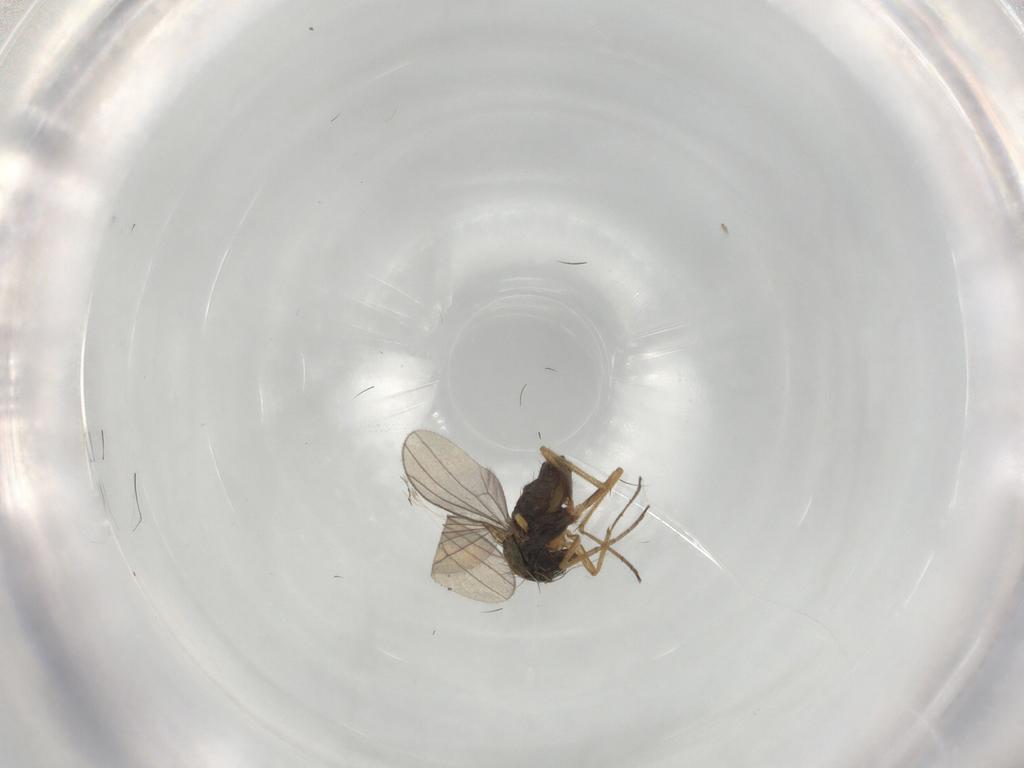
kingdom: Animalia
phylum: Arthropoda
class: Insecta
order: Diptera
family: Dolichopodidae
